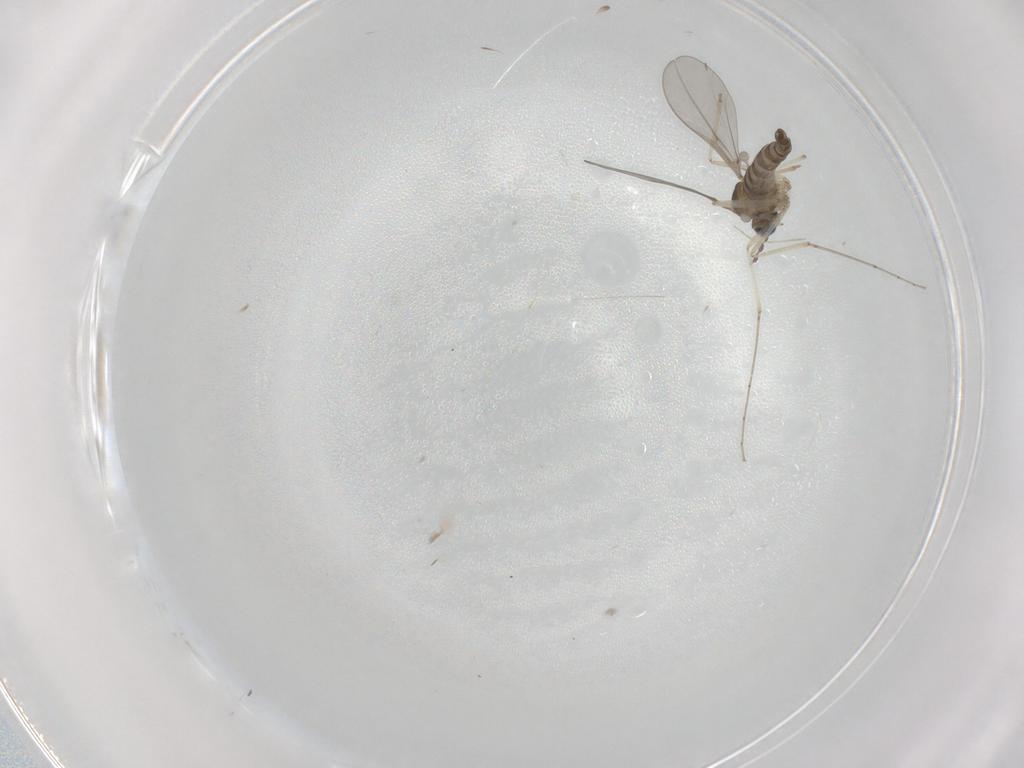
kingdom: Animalia
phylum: Arthropoda
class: Insecta
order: Diptera
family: Cecidomyiidae
